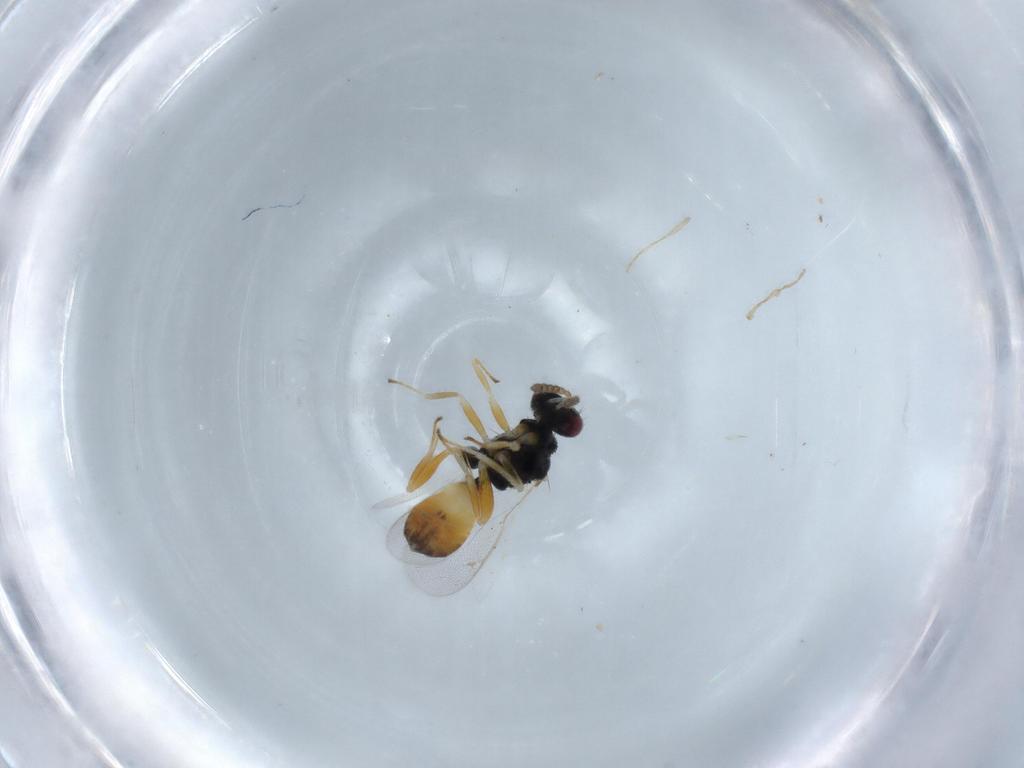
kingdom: Animalia
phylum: Arthropoda
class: Insecta
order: Hymenoptera
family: Eulophidae
